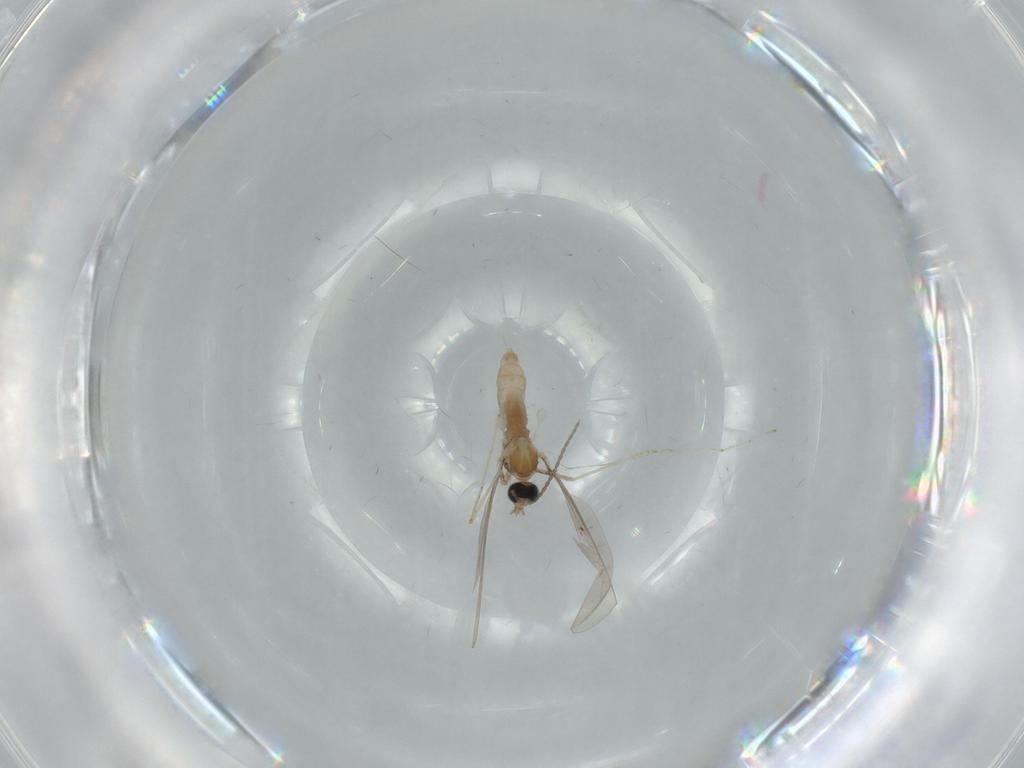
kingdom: Animalia
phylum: Arthropoda
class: Insecta
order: Diptera
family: Cecidomyiidae
